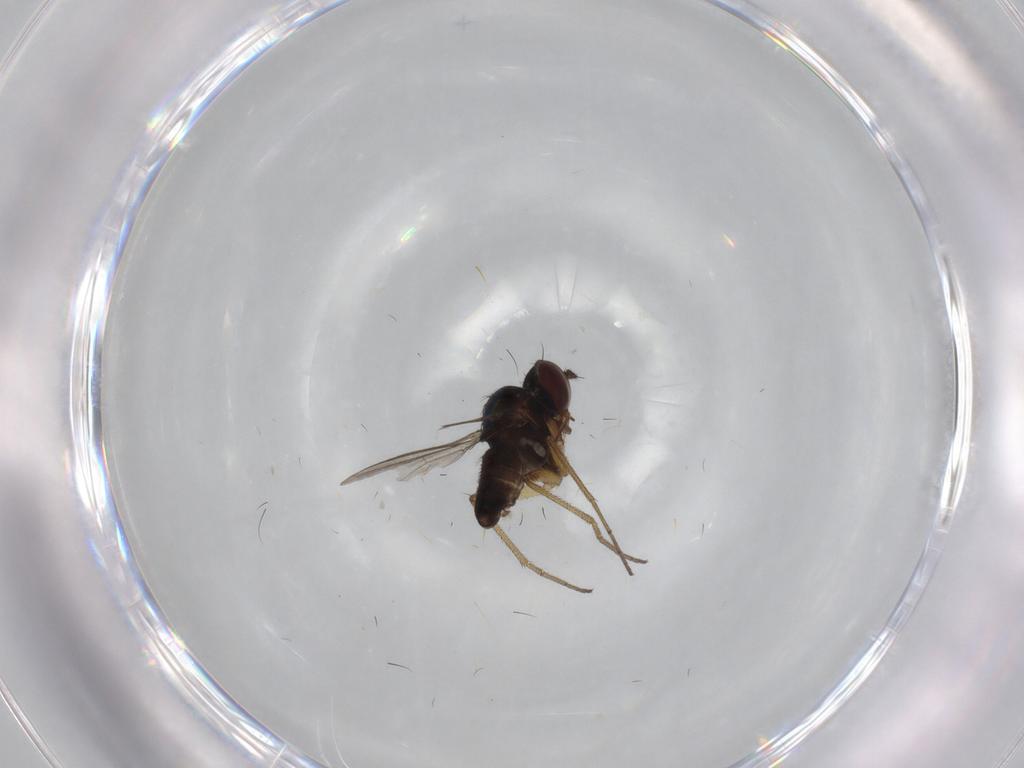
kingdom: Animalia
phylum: Arthropoda
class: Insecta
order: Diptera
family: Dolichopodidae
